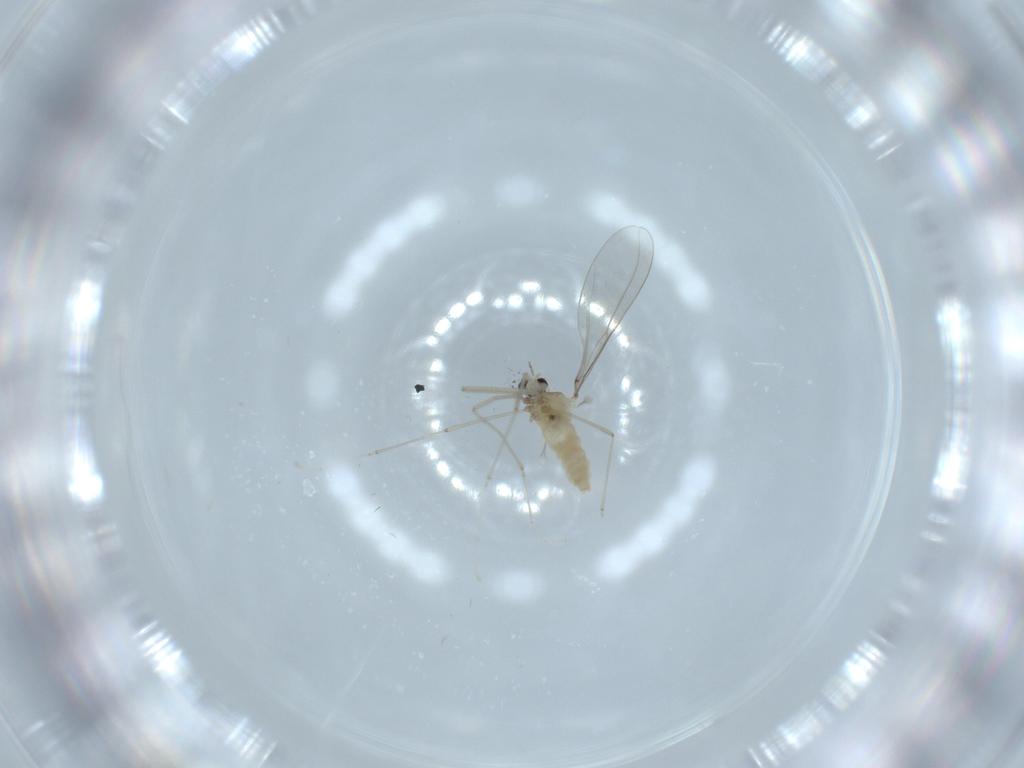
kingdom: Animalia
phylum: Arthropoda
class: Insecta
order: Diptera
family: Cecidomyiidae
